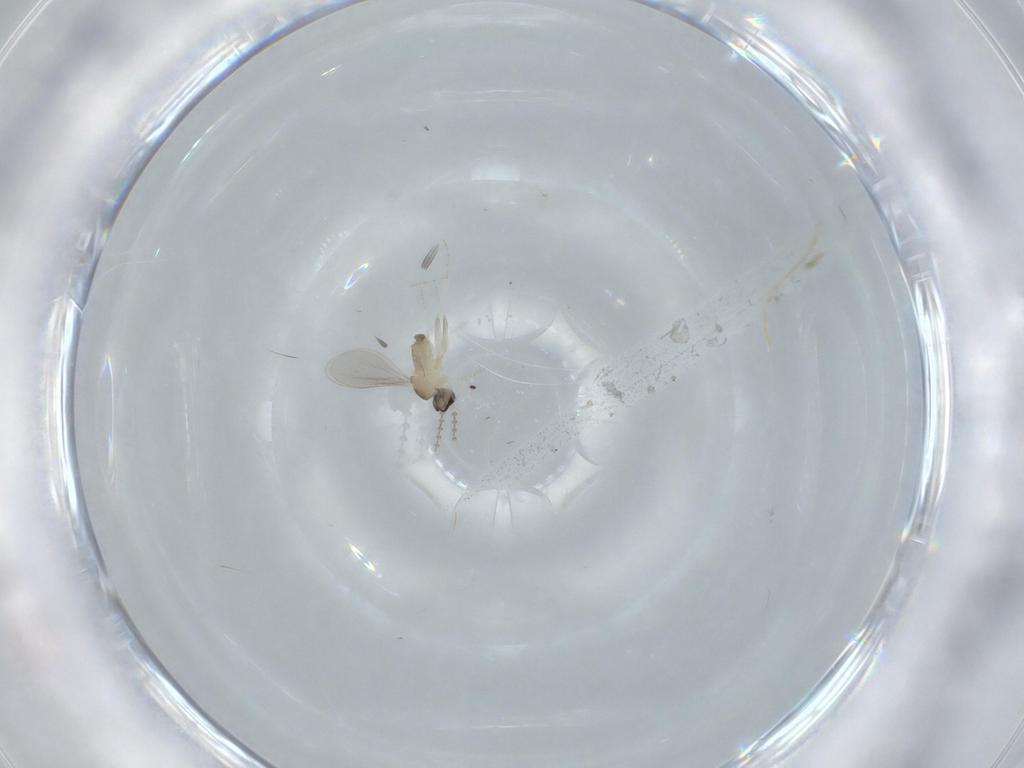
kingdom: Animalia
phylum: Arthropoda
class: Insecta
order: Diptera
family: Sciaridae
